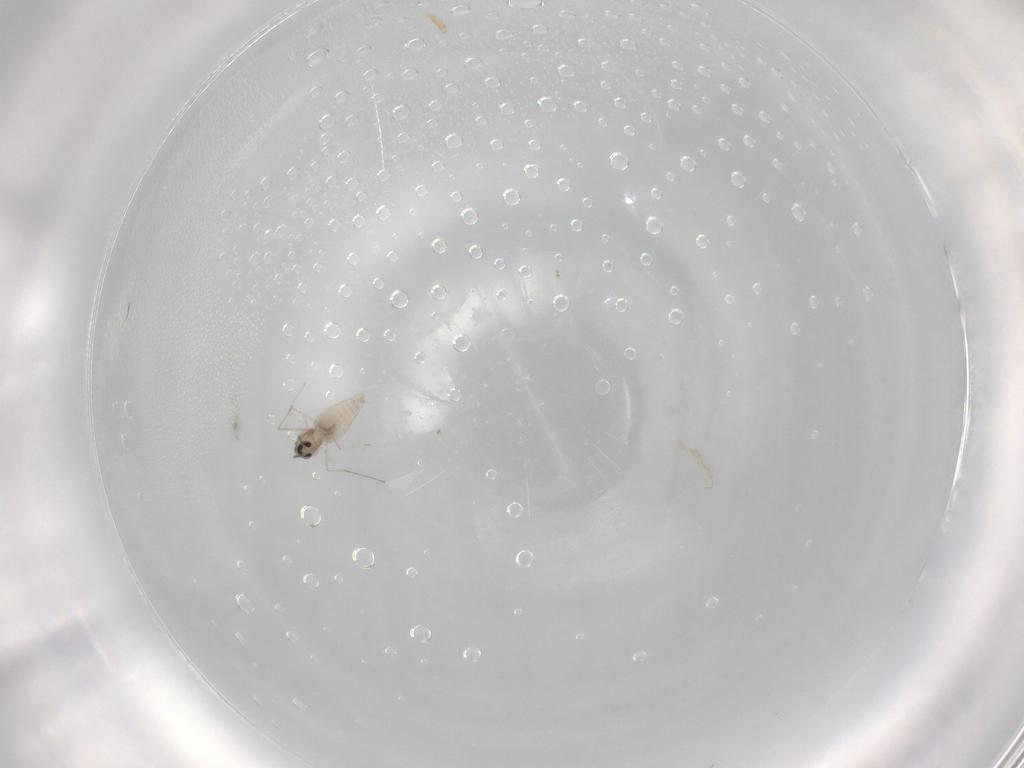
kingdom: Animalia
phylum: Arthropoda
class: Insecta
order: Diptera
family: Cecidomyiidae
